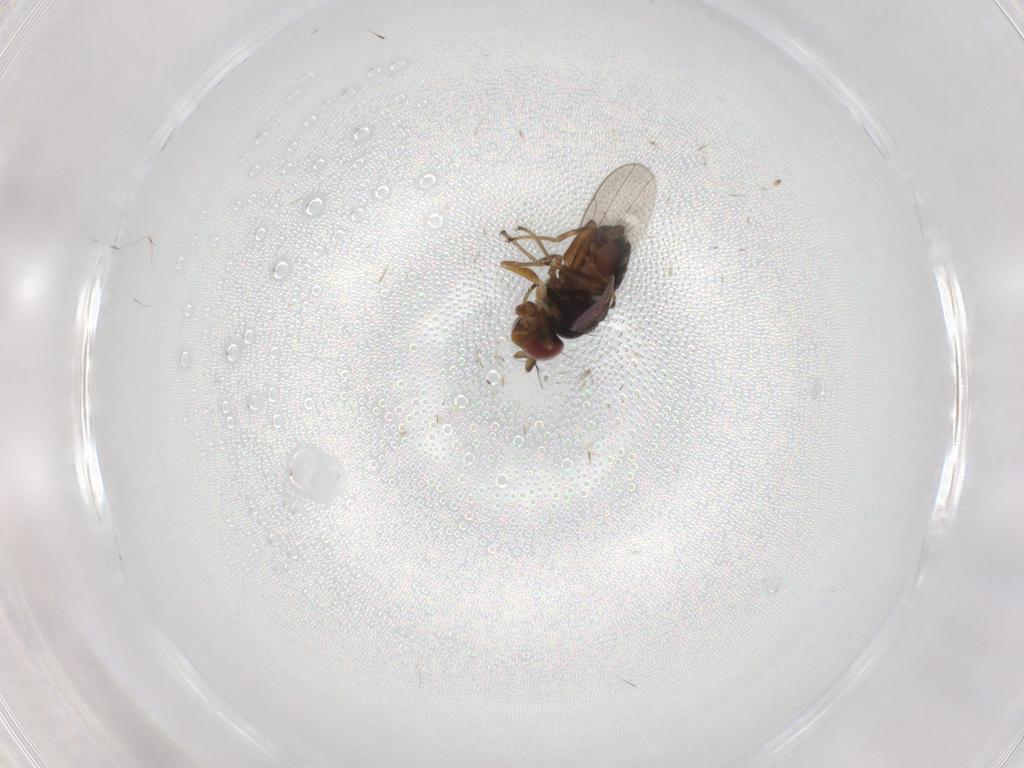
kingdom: Animalia
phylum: Arthropoda
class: Insecta
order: Diptera
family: Ephydridae
